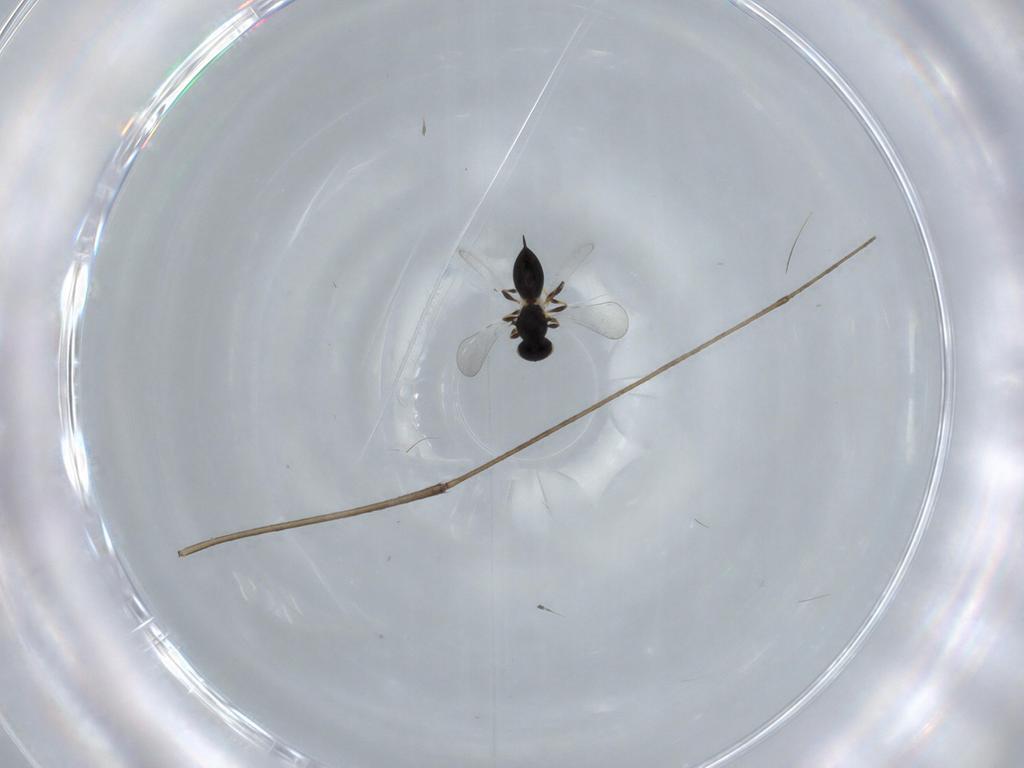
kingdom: Animalia
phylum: Arthropoda
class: Insecta
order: Hymenoptera
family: Platygastridae
